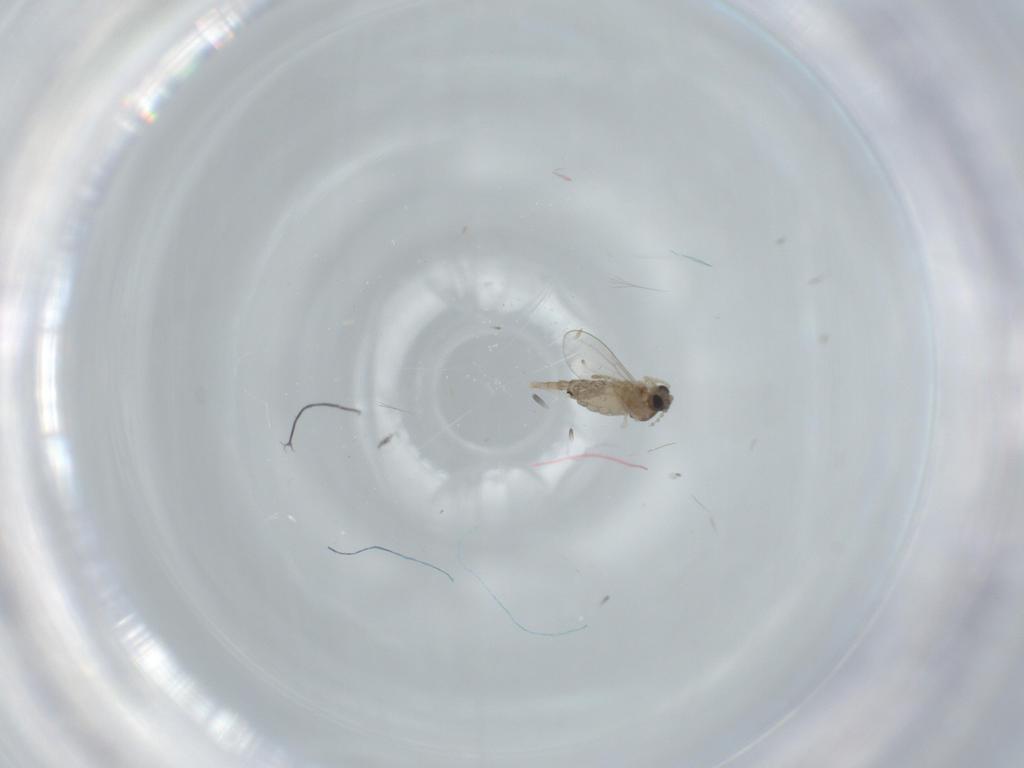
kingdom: Animalia
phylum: Arthropoda
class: Insecta
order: Diptera
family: Cecidomyiidae
